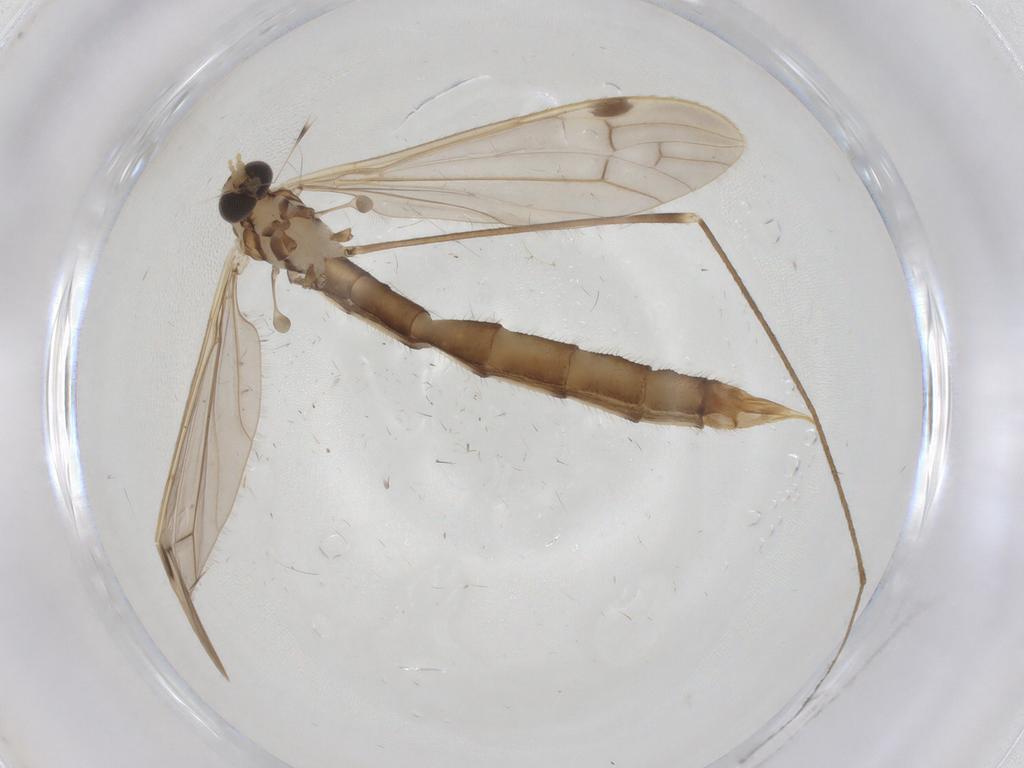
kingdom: Animalia
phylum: Arthropoda
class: Insecta
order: Diptera
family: Limoniidae
